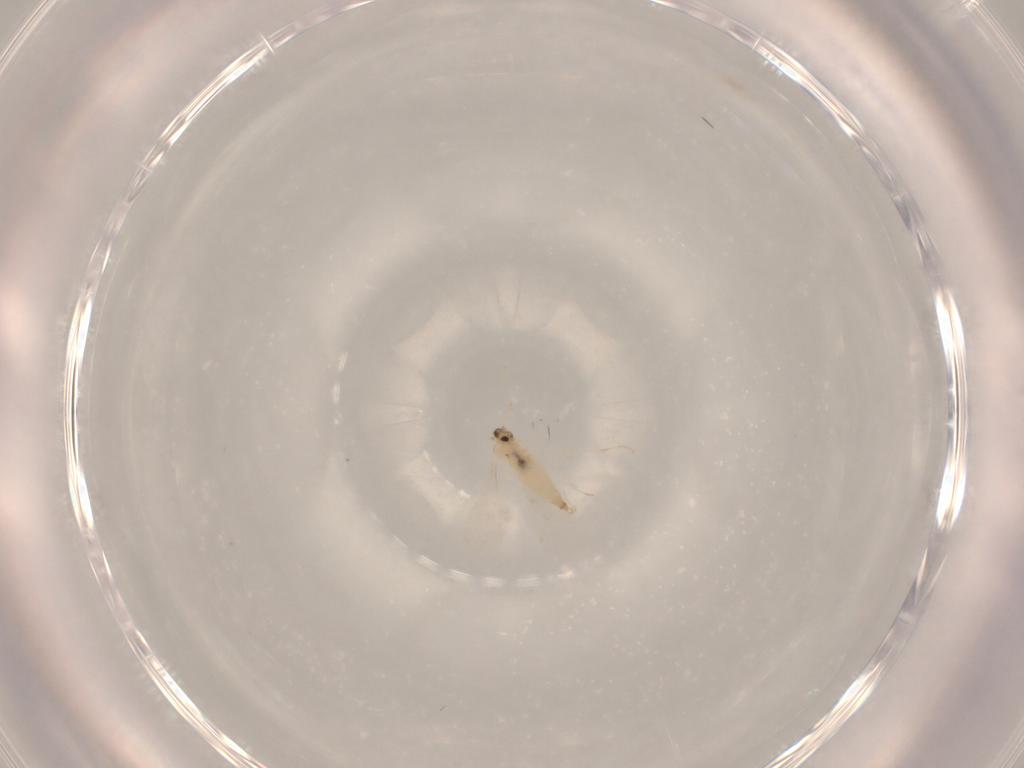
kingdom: Animalia
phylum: Arthropoda
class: Insecta
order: Diptera
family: Cecidomyiidae
